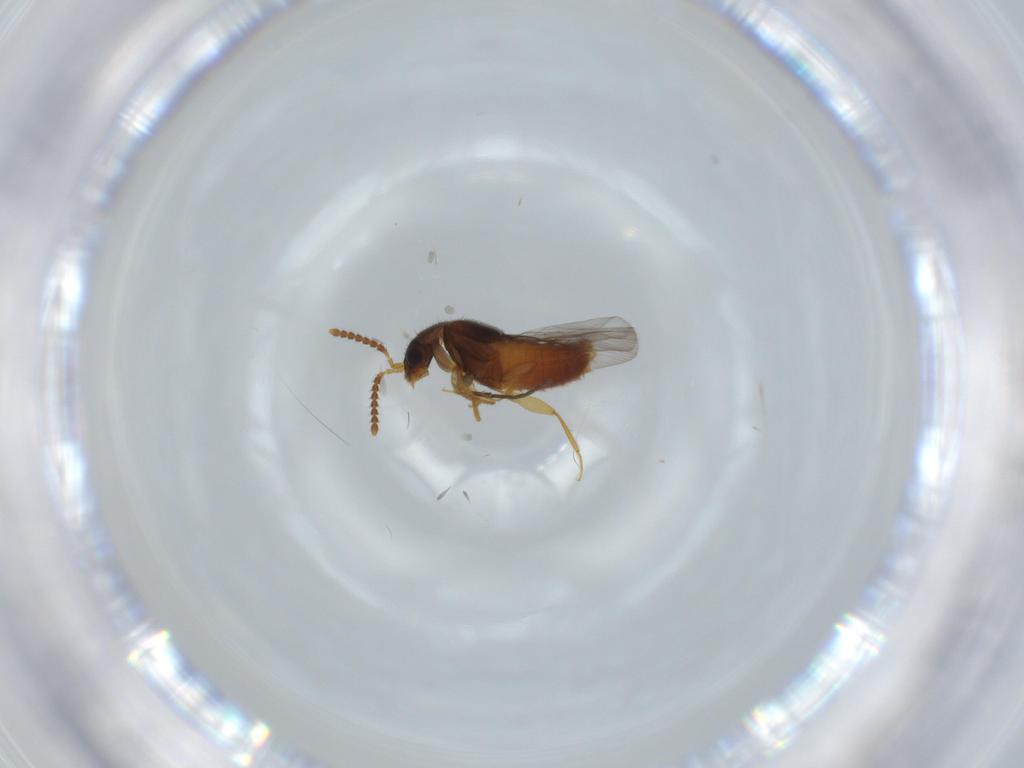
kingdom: Animalia
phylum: Arthropoda
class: Insecta
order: Coleoptera
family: Staphylinidae
